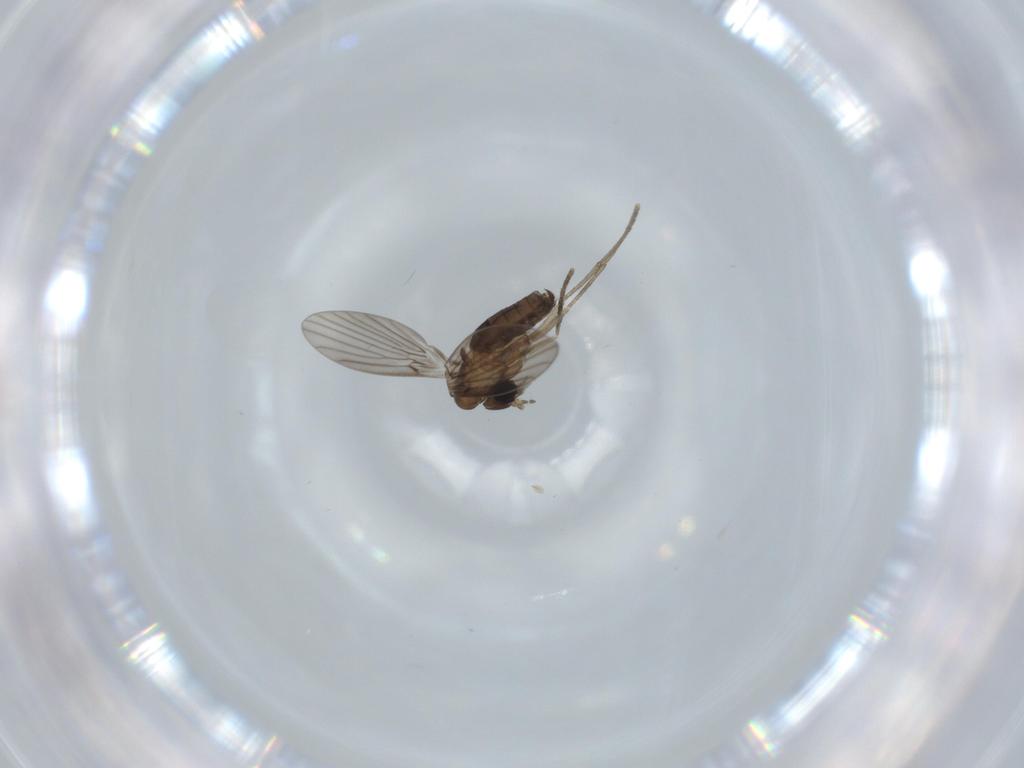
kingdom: Animalia
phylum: Arthropoda
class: Insecta
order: Diptera
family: Psychodidae
